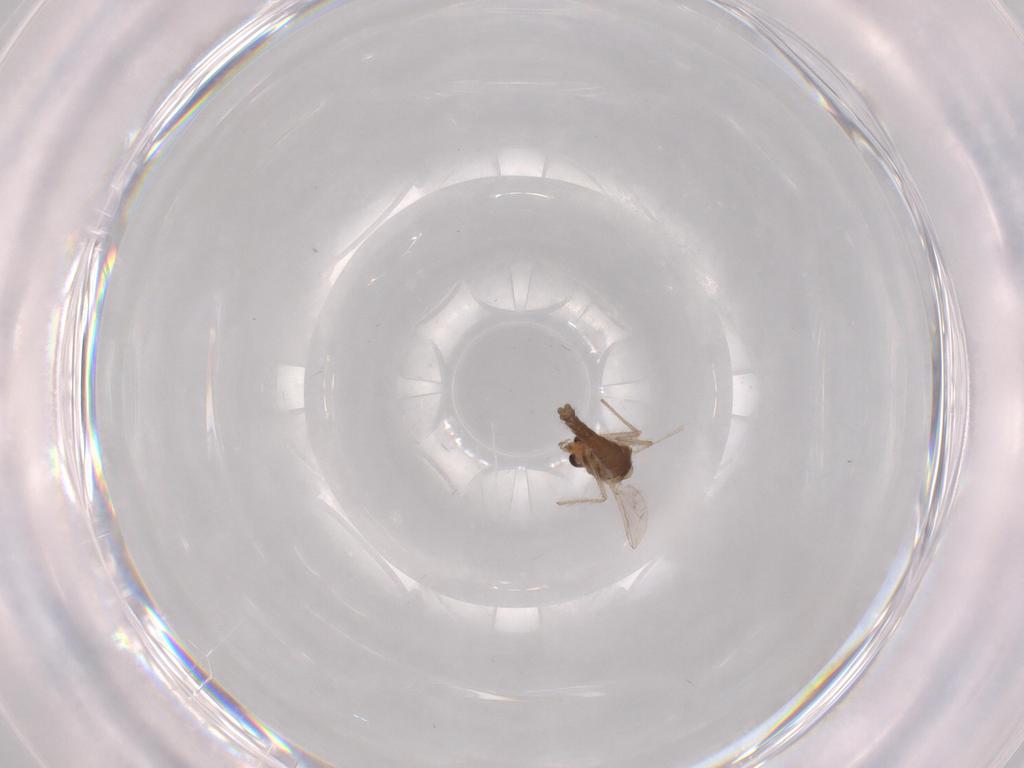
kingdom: Animalia
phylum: Arthropoda
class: Insecta
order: Diptera
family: Chironomidae
